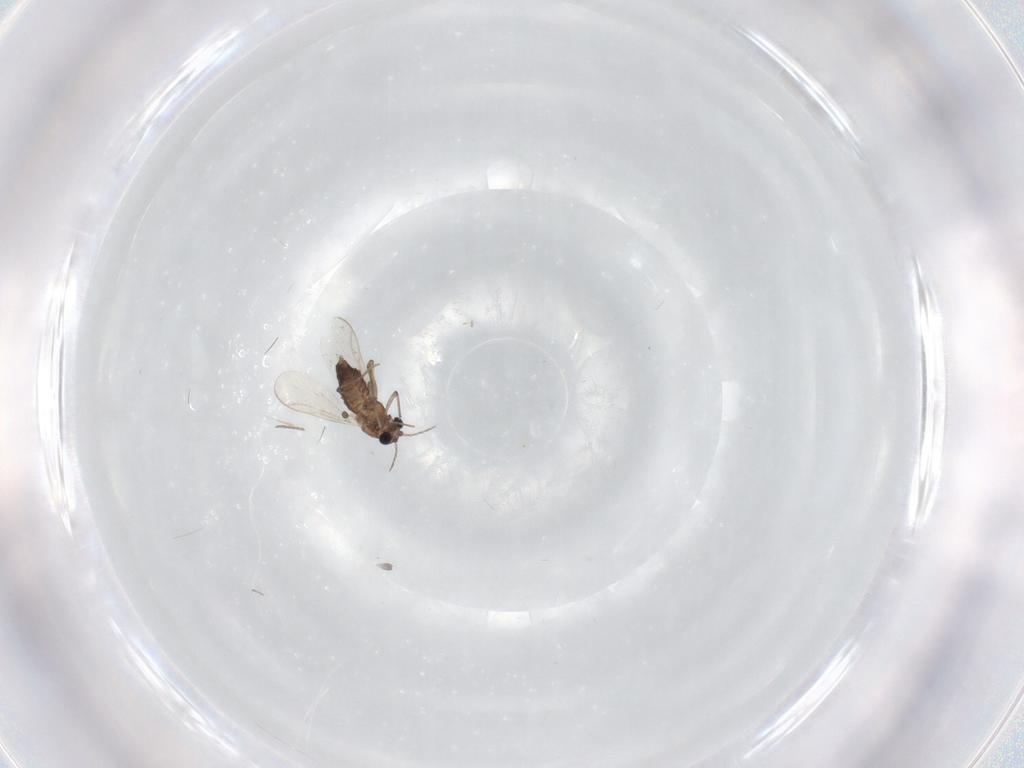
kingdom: Animalia
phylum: Arthropoda
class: Insecta
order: Diptera
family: Chironomidae
